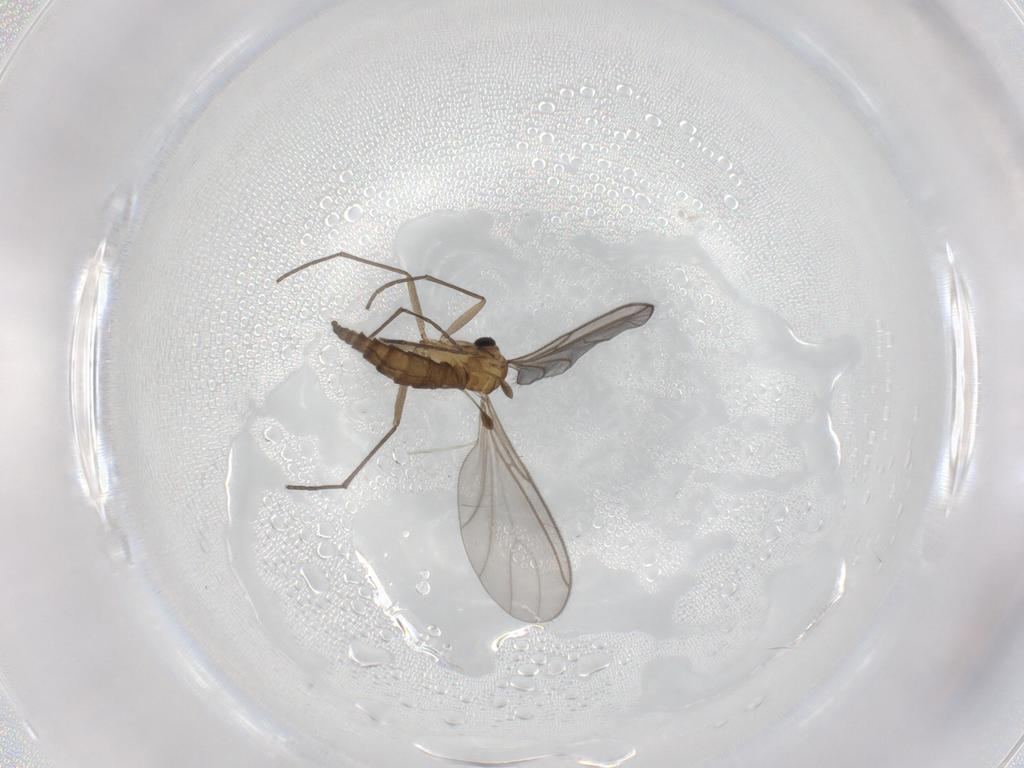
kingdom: Animalia
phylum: Arthropoda
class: Insecta
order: Diptera
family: Sciaridae
